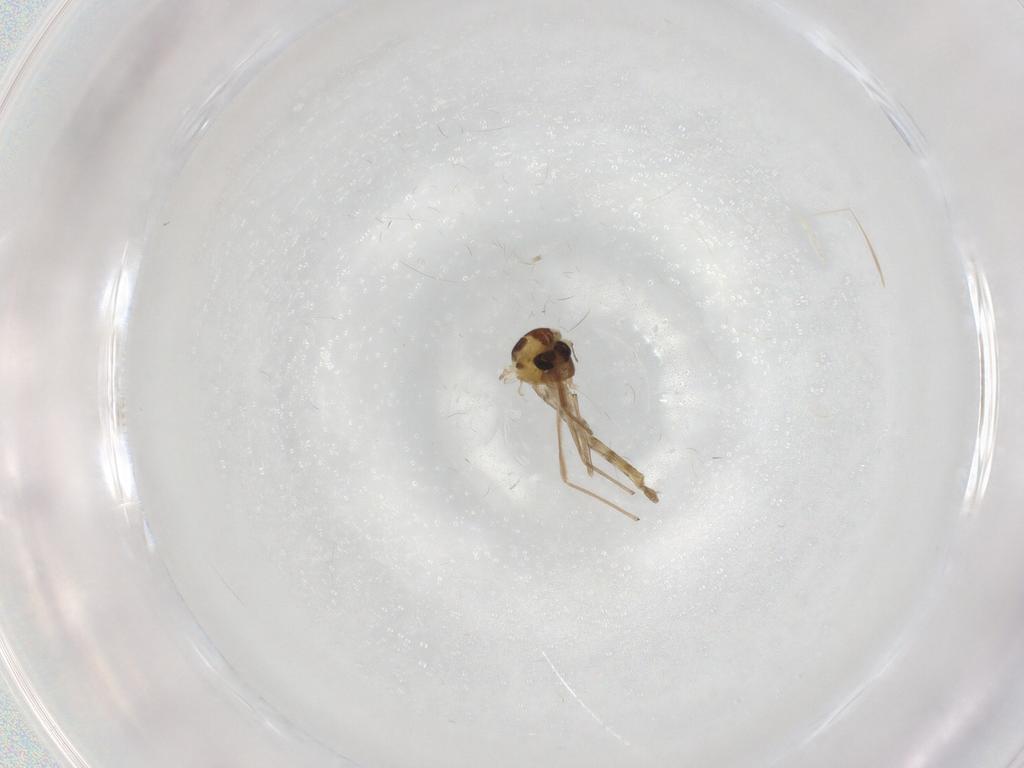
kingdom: Animalia
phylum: Arthropoda
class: Insecta
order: Diptera
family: Chironomidae
